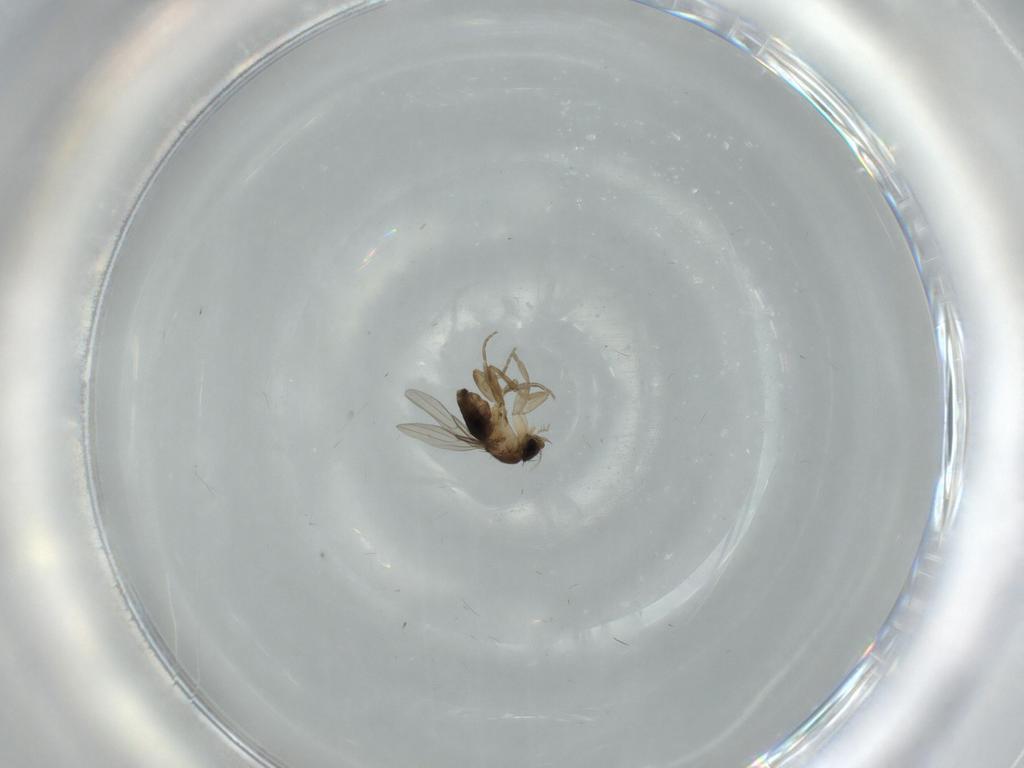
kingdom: Animalia
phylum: Arthropoda
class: Insecta
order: Diptera
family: Phoridae
